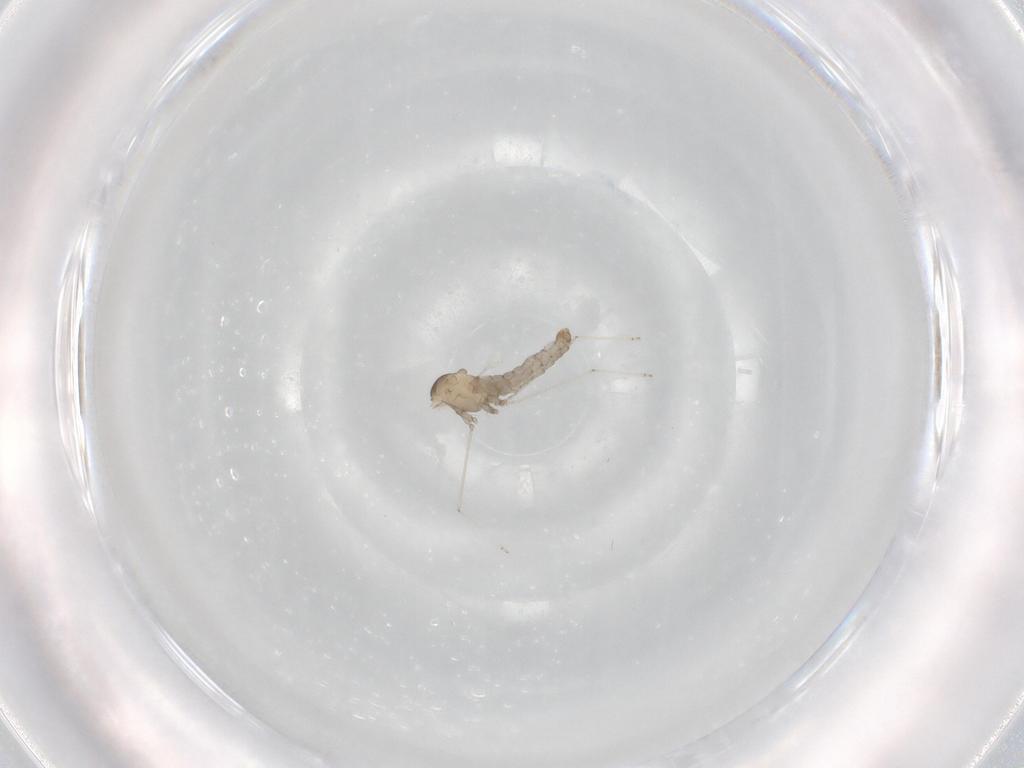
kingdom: Animalia
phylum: Arthropoda
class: Insecta
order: Diptera
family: Cecidomyiidae
